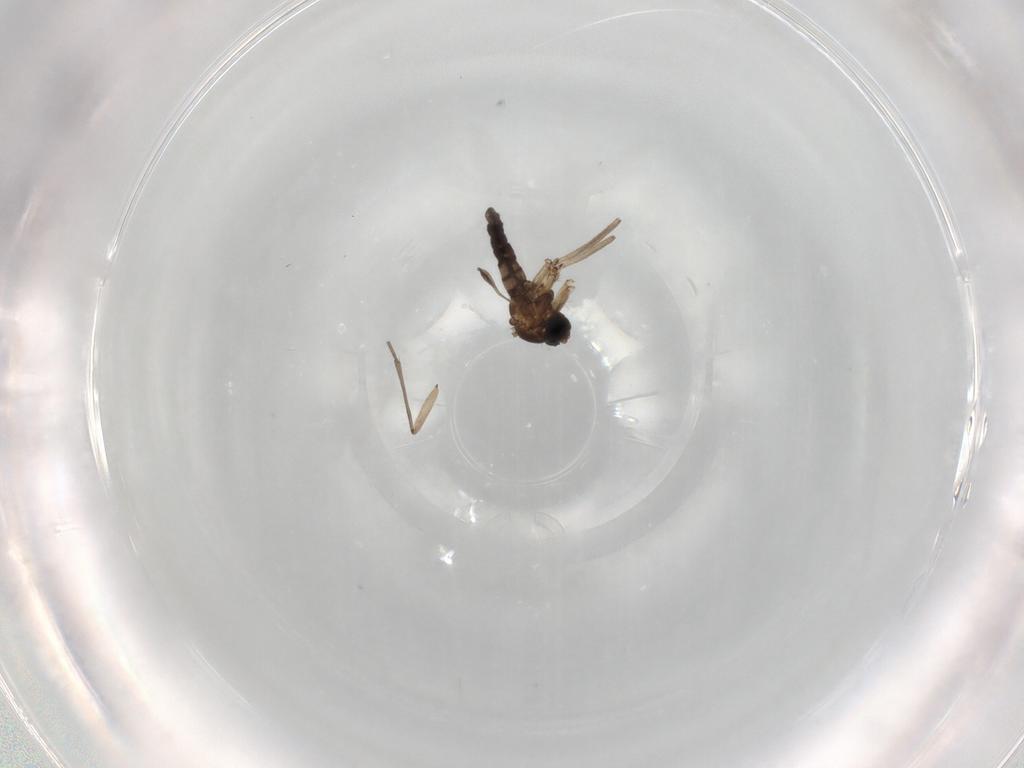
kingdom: Animalia
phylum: Arthropoda
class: Insecta
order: Diptera
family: Sciaridae
